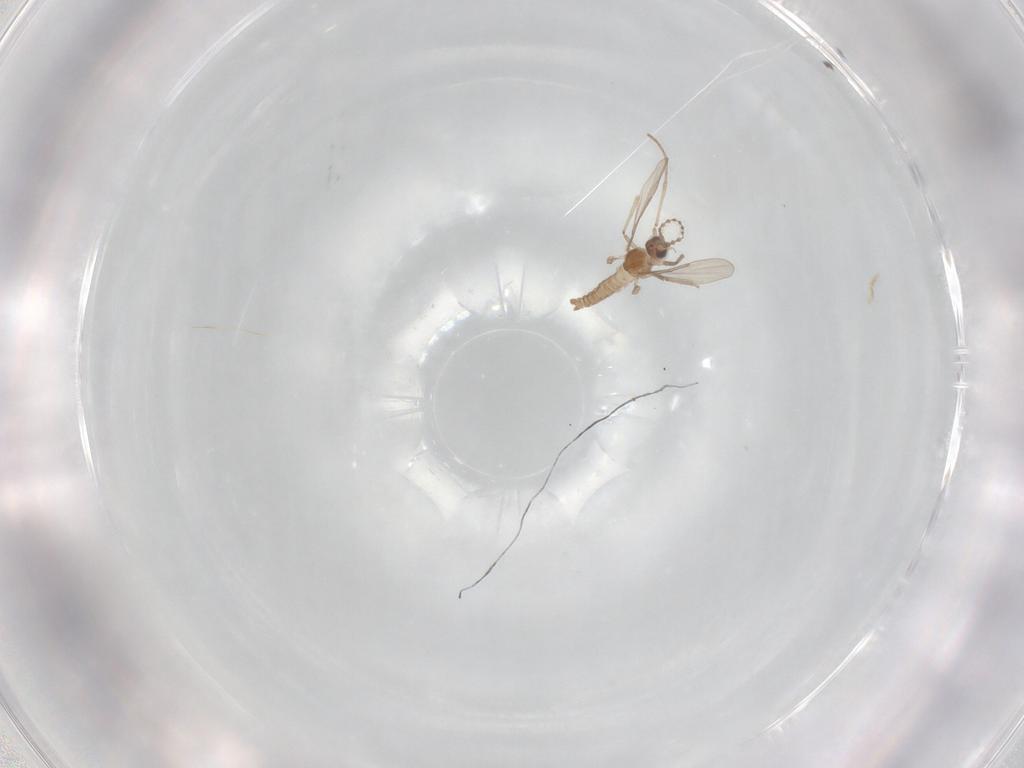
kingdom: Animalia
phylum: Arthropoda
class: Insecta
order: Diptera
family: Cecidomyiidae
